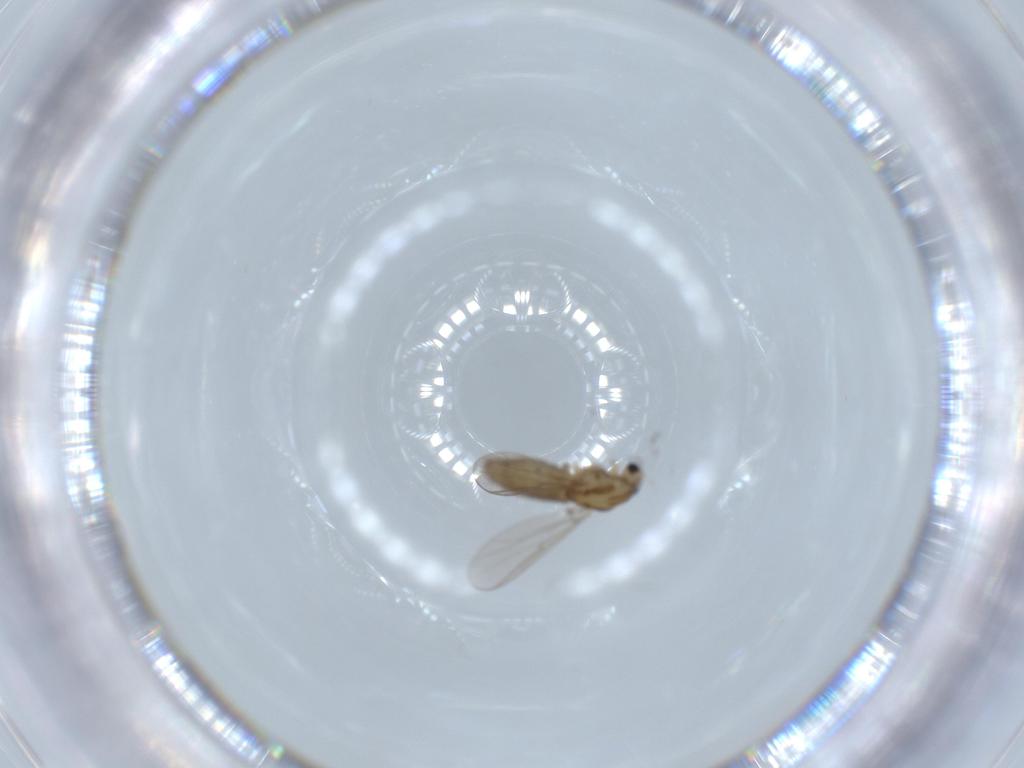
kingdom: Animalia
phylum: Arthropoda
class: Insecta
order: Diptera
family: Chironomidae
